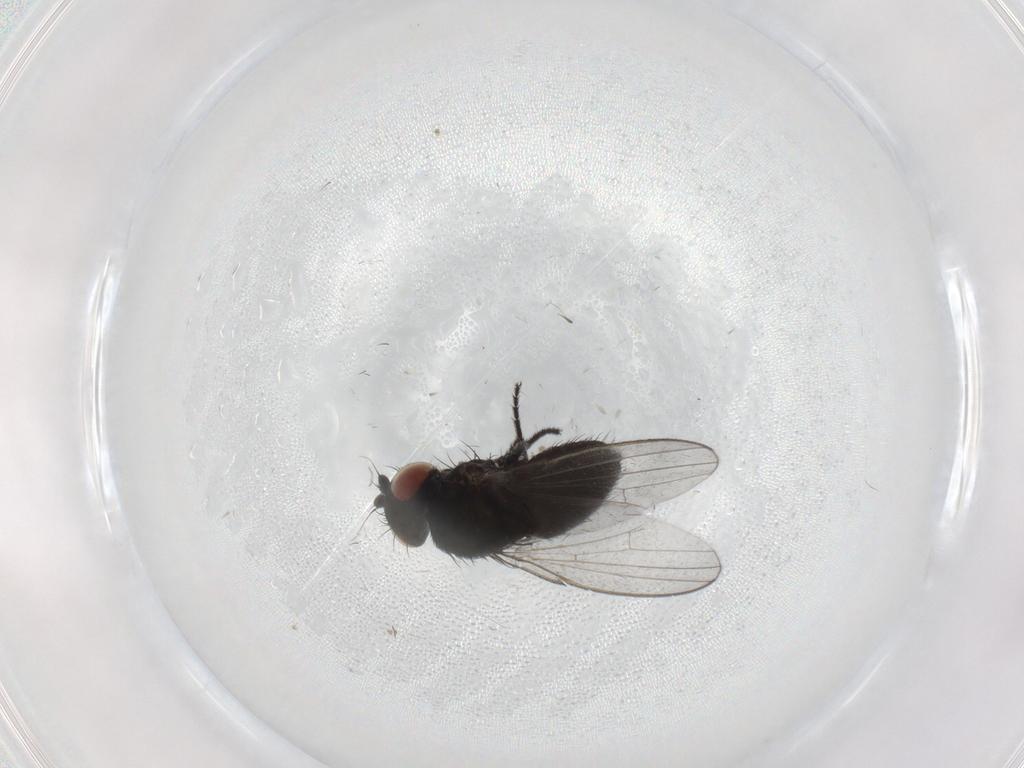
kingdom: Animalia
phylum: Arthropoda
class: Insecta
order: Diptera
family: Milichiidae
